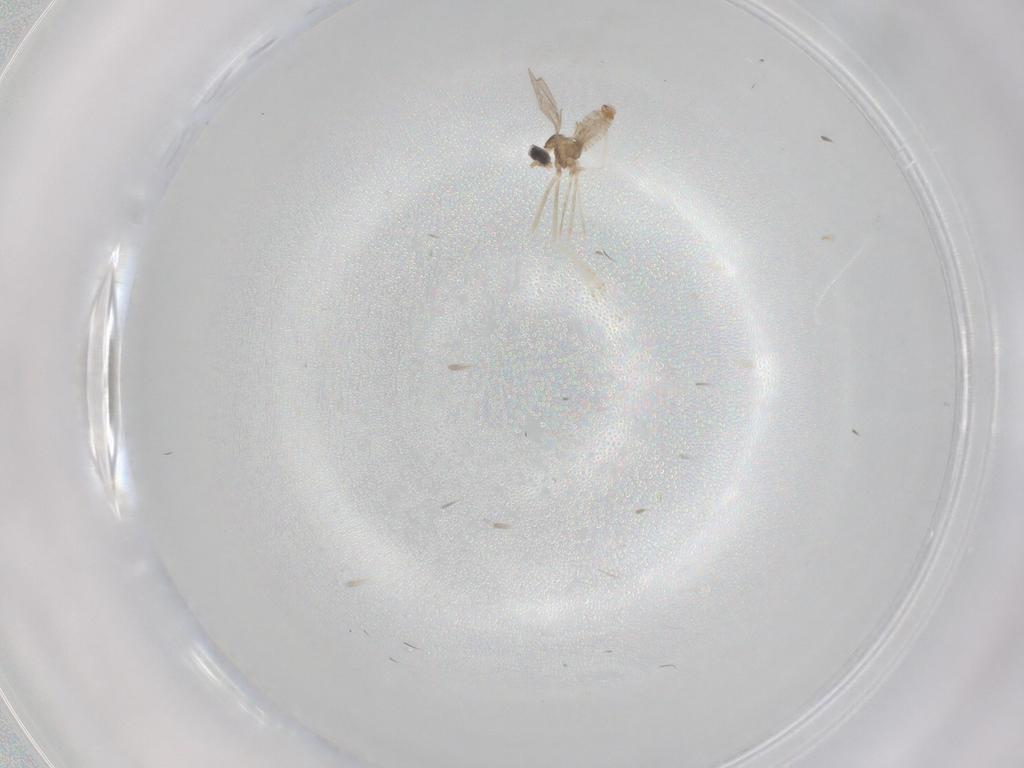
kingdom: Animalia
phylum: Arthropoda
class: Insecta
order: Diptera
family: Cecidomyiidae
